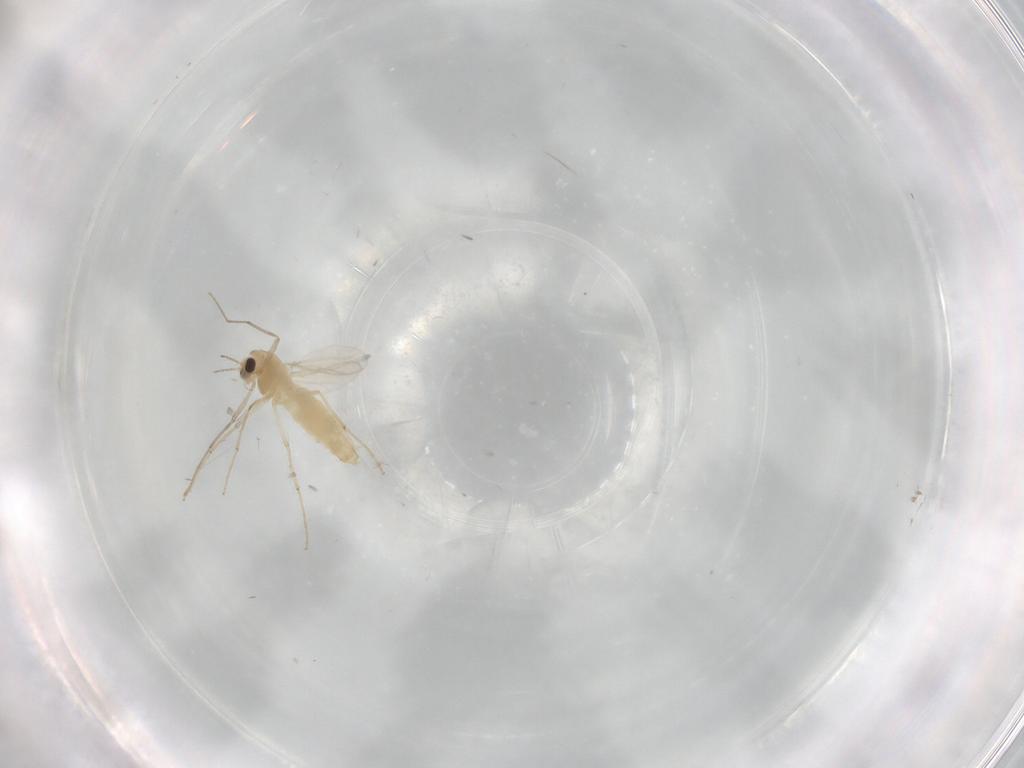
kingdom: Animalia
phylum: Arthropoda
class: Insecta
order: Diptera
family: Chironomidae
